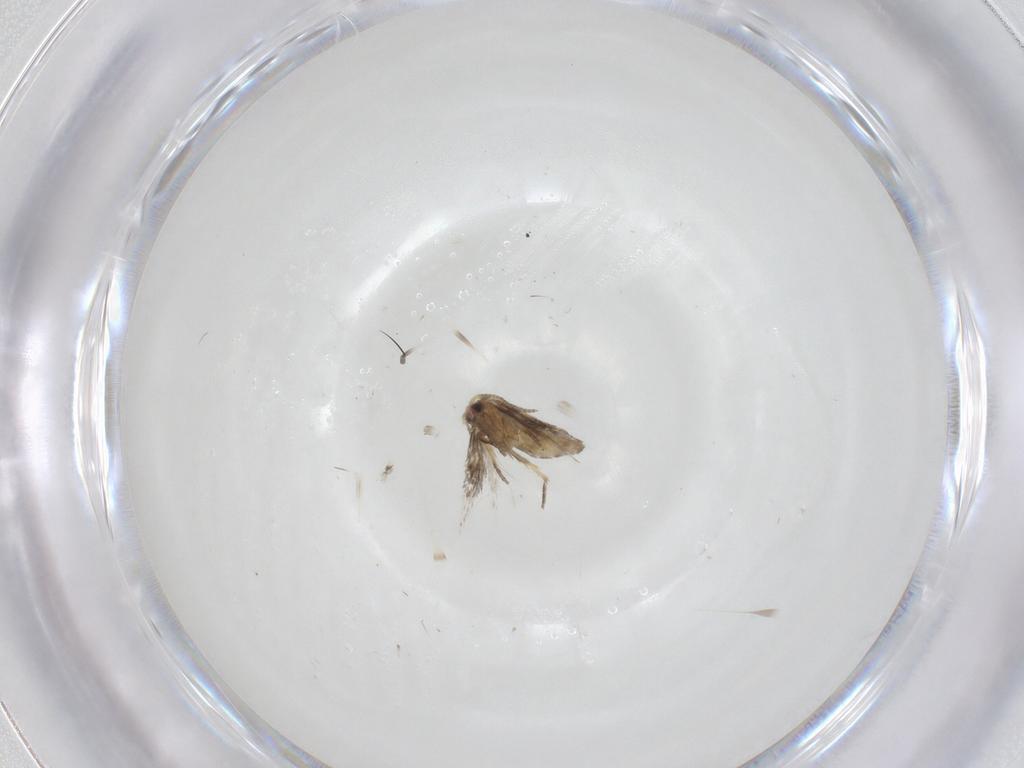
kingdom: Animalia
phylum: Arthropoda
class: Insecta
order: Lepidoptera
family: Nepticulidae
